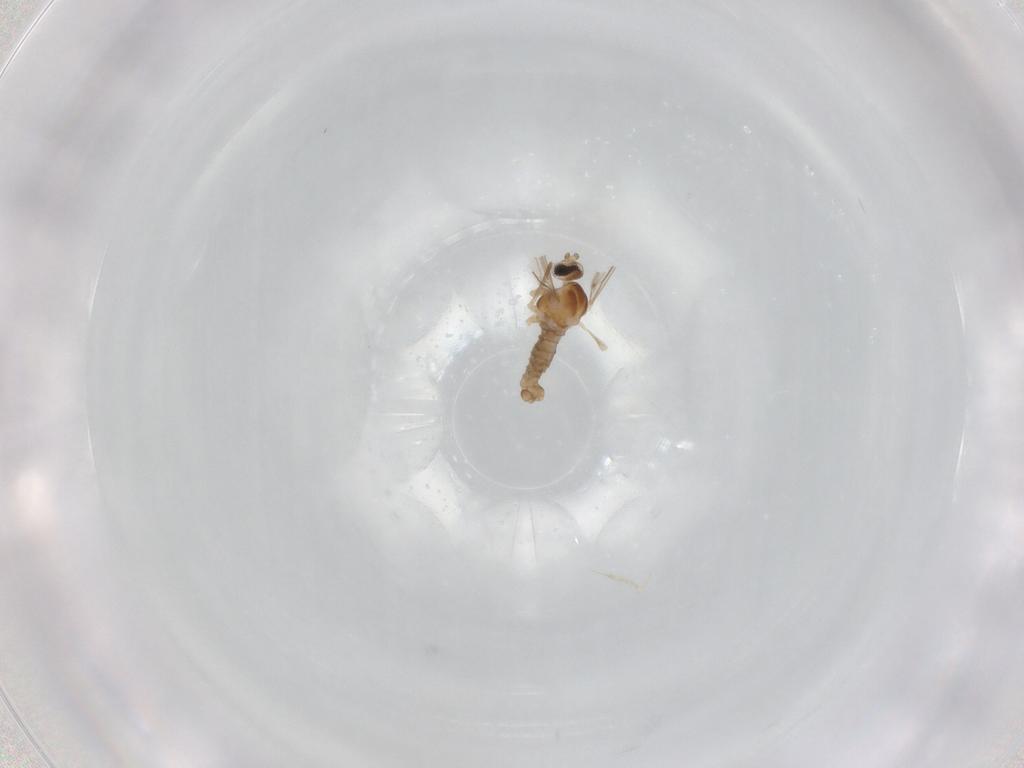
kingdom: Animalia
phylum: Arthropoda
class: Insecta
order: Diptera
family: Cecidomyiidae
